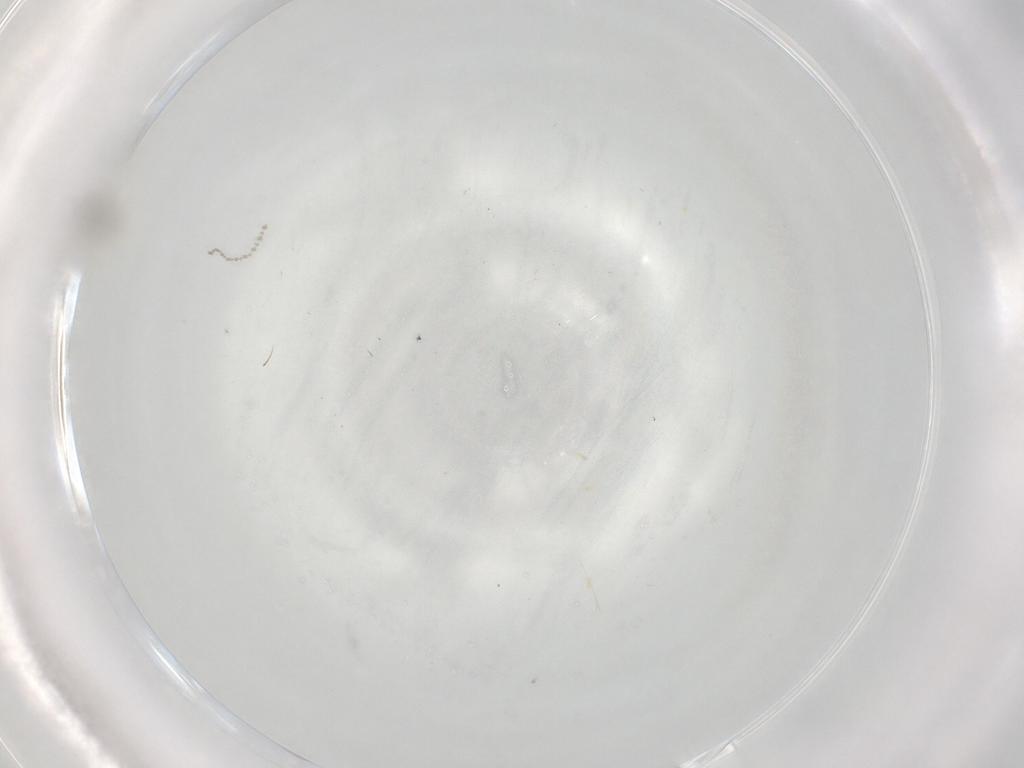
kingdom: Animalia
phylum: Arthropoda
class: Insecta
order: Diptera
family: Cecidomyiidae
